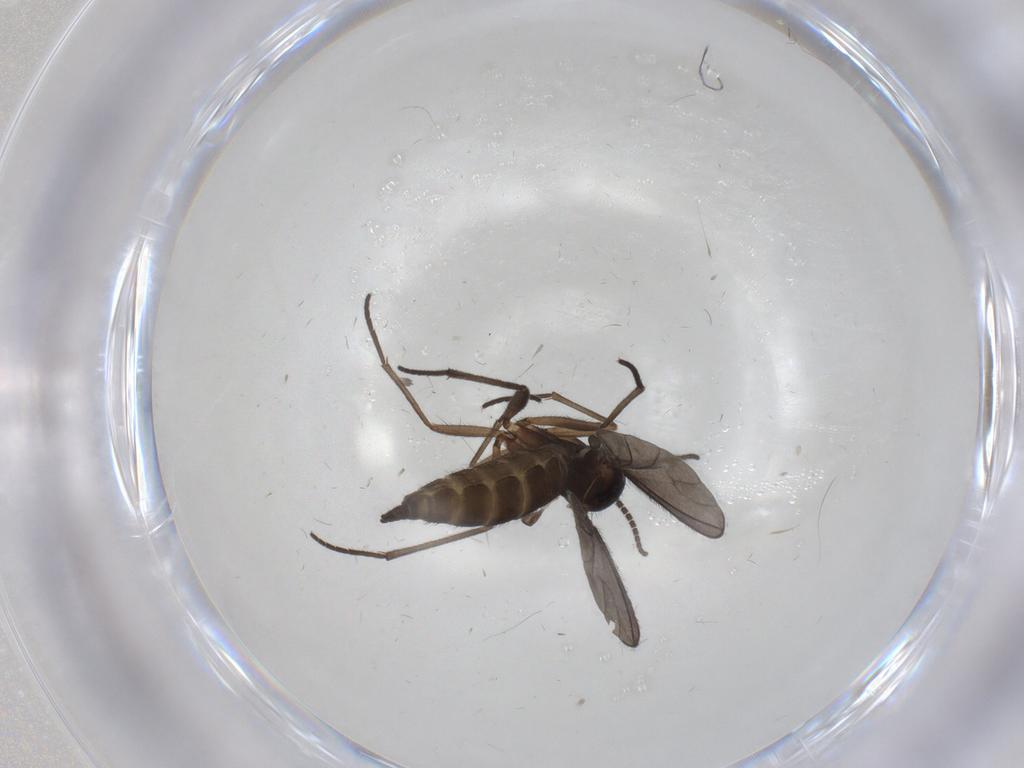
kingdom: Animalia
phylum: Arthropoda
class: Insecta
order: Diptera
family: Sciaridae
